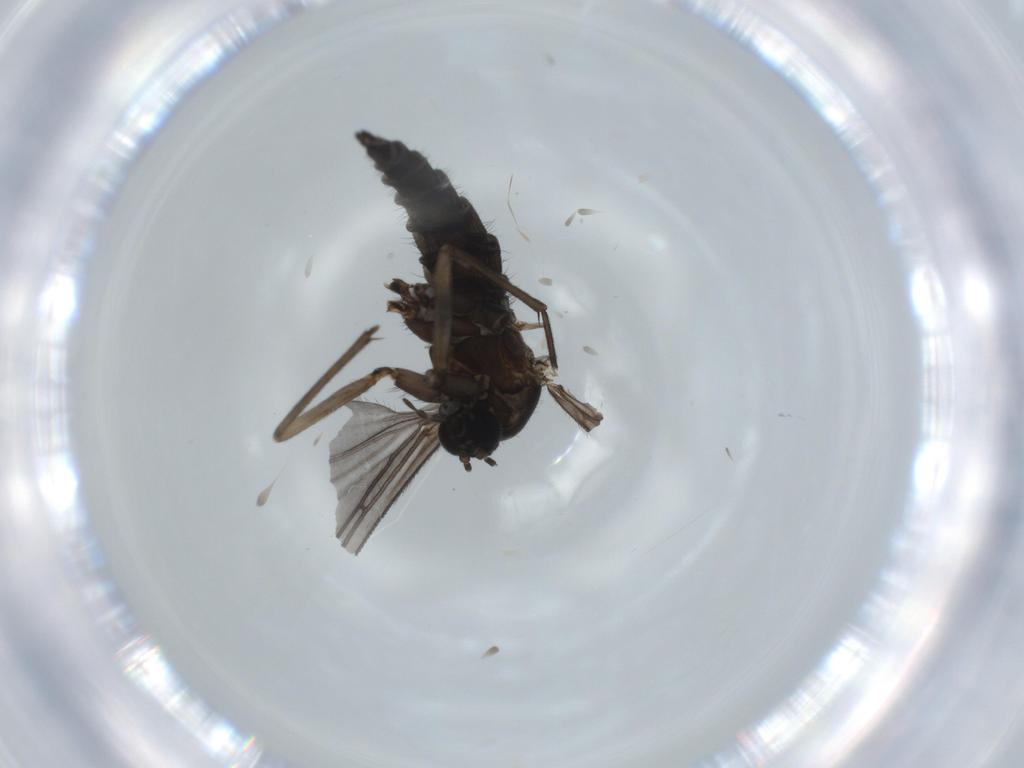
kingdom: Animalia
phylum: Arthropoda
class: Insecta
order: Diptera
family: Sciaridae
